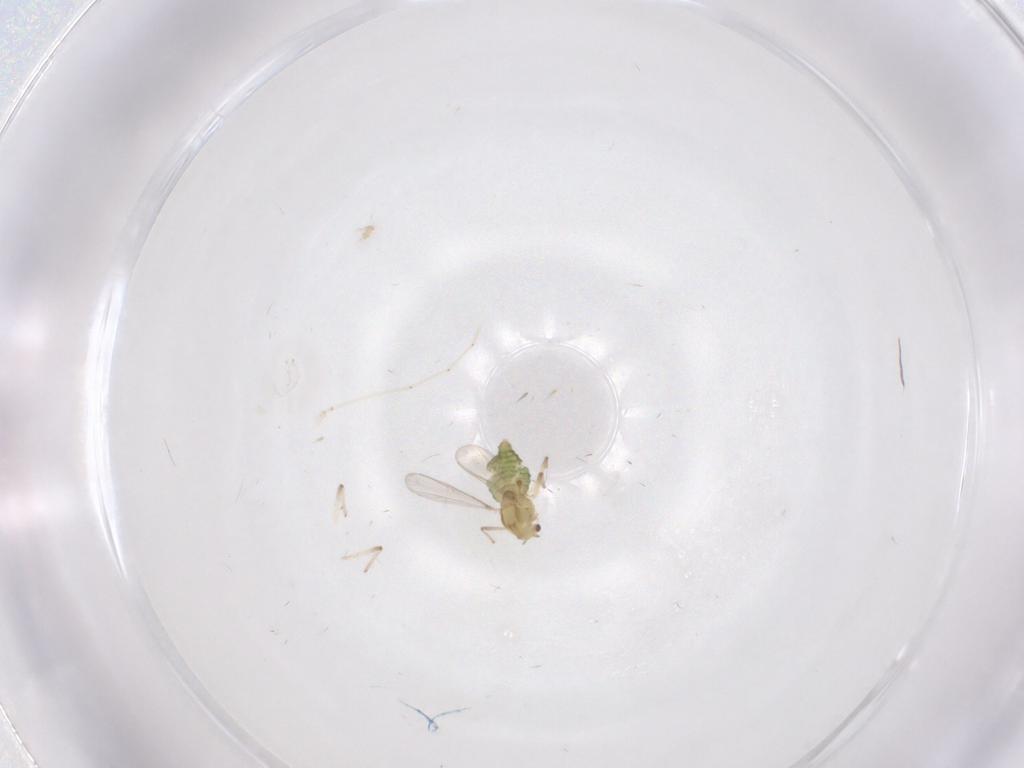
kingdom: Animalia
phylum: Arthropoda
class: Insecta
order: Diptera
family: Chironomidae
